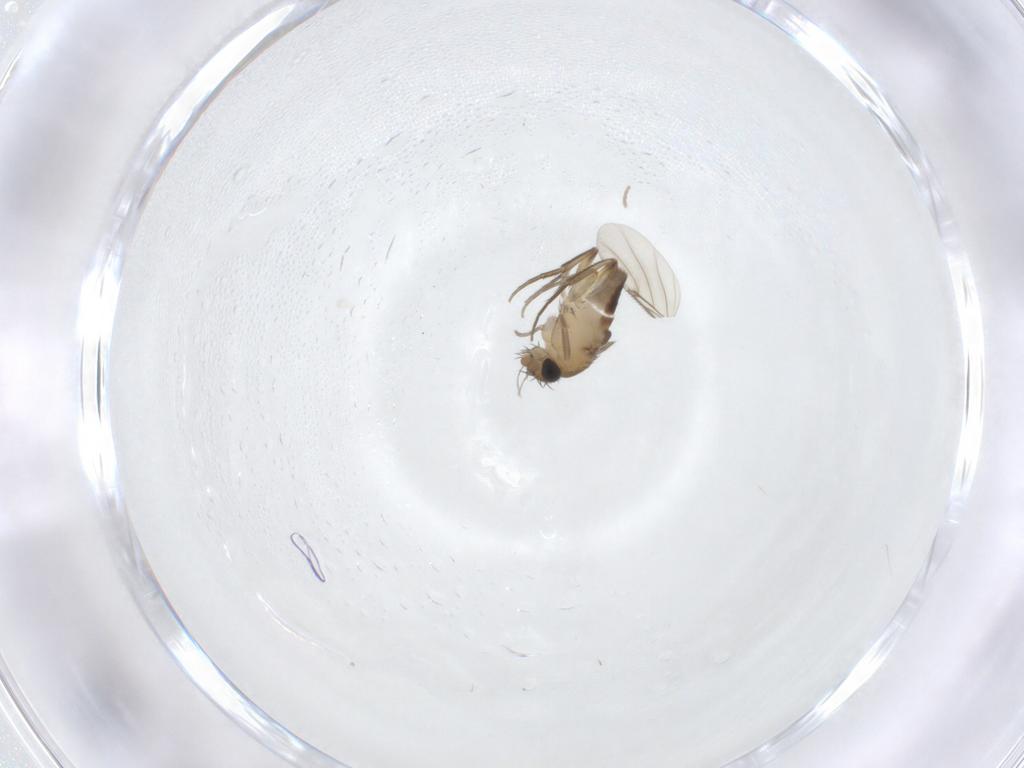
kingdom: Animalia
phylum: Arthropoda
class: Insecta
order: Diptera
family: Phoridae
